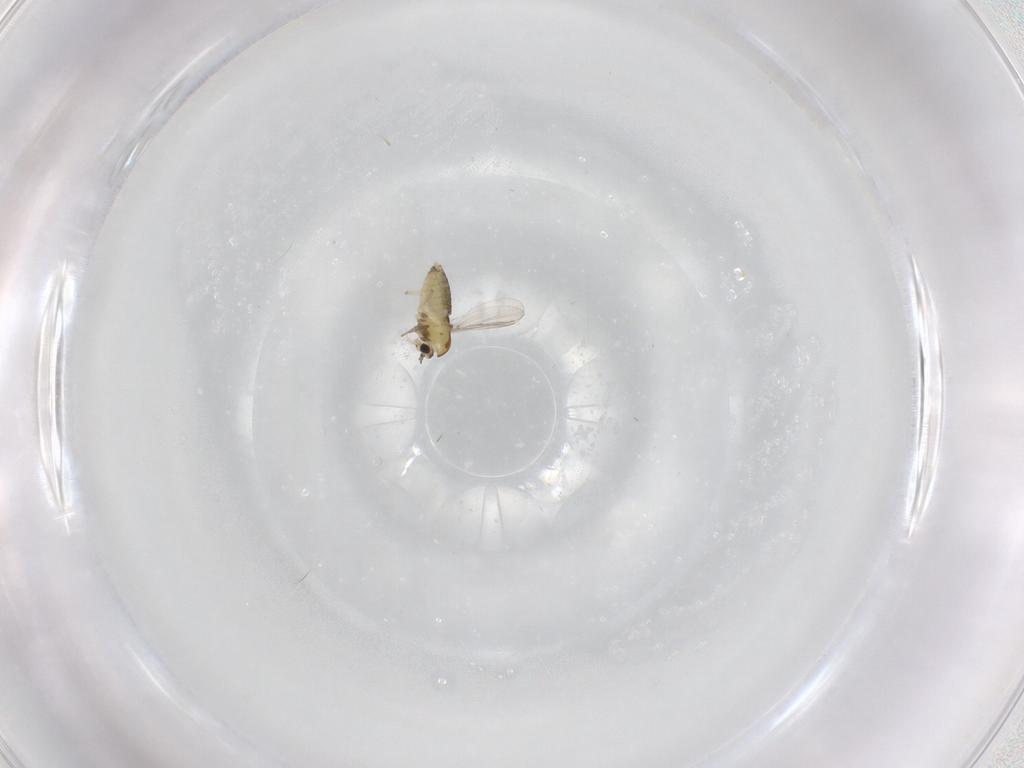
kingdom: Animalia
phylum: Arthropoda
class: Insecta
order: Diptera
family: Chironomidae
